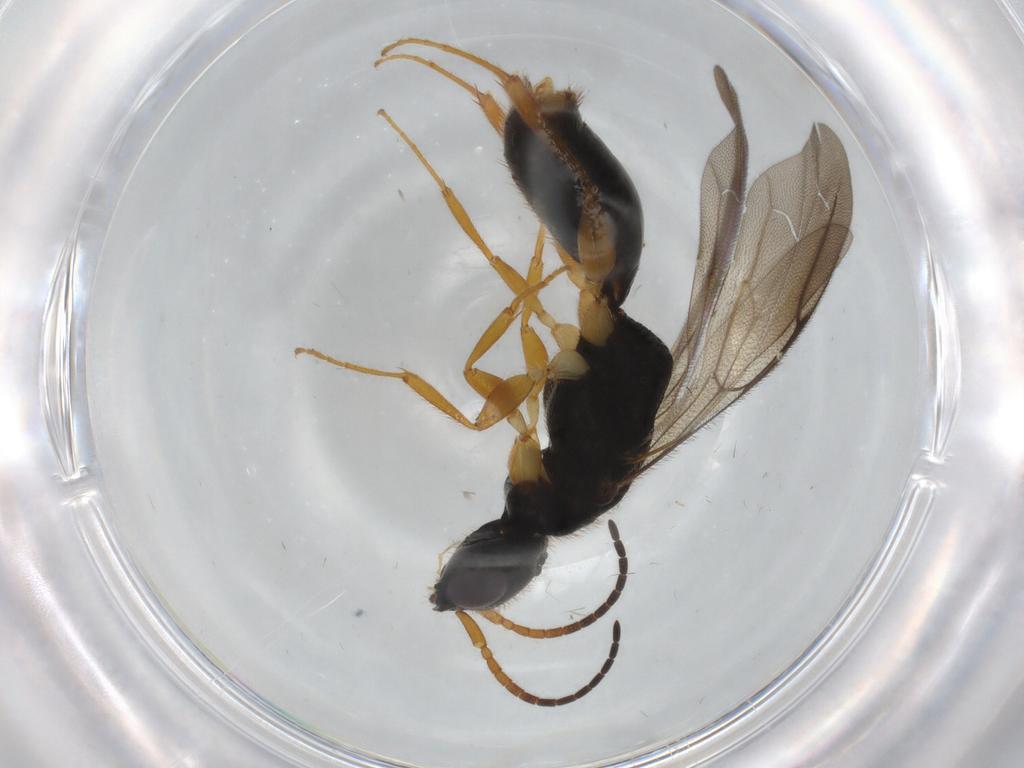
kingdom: Animalia
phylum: Arthropoda
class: Insecta
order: Hymenoptera
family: Bethylidae
